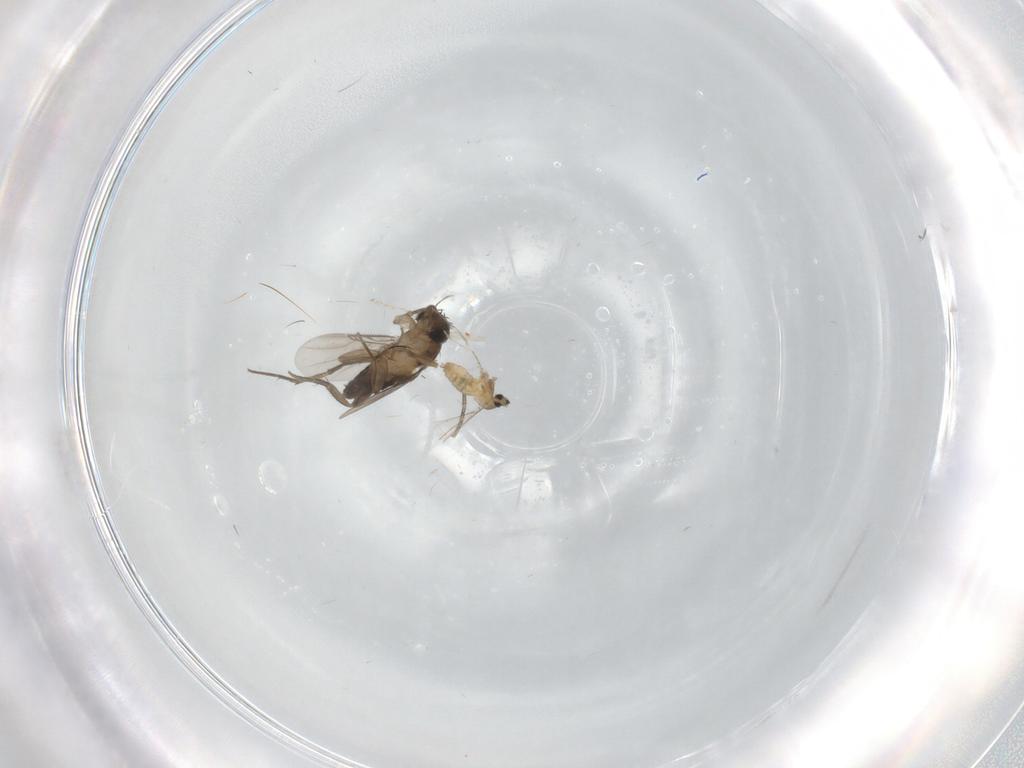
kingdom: Animalia
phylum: Arthropoda
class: Insecta
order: Diptera
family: Phoridae
